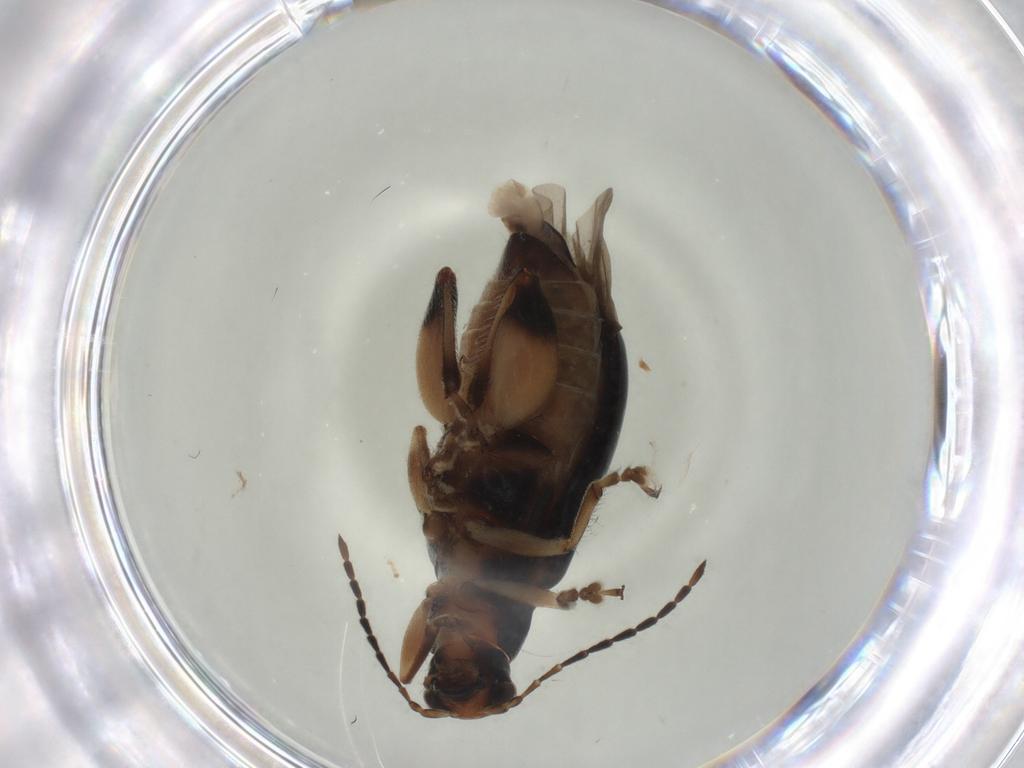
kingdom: Animalia
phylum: Arthropoda
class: Insecta
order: Coleoptera
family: Chrysomelidae
